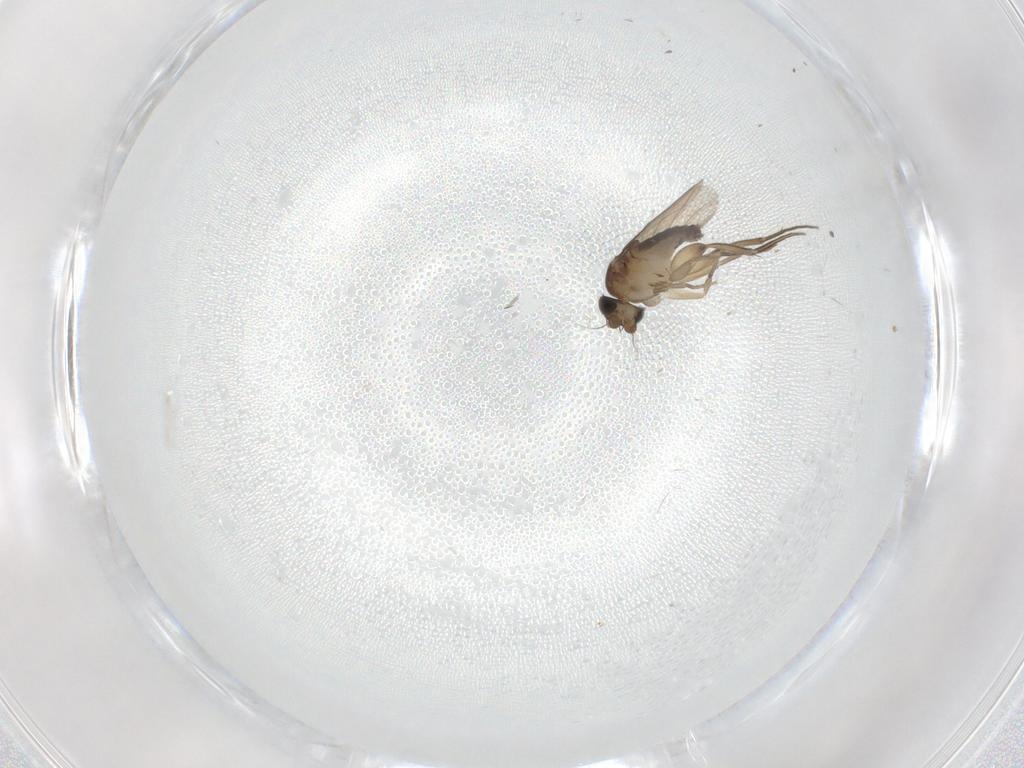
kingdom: Animalia
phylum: Arthropoda
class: Insecta
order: Diptera
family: Phoridae
